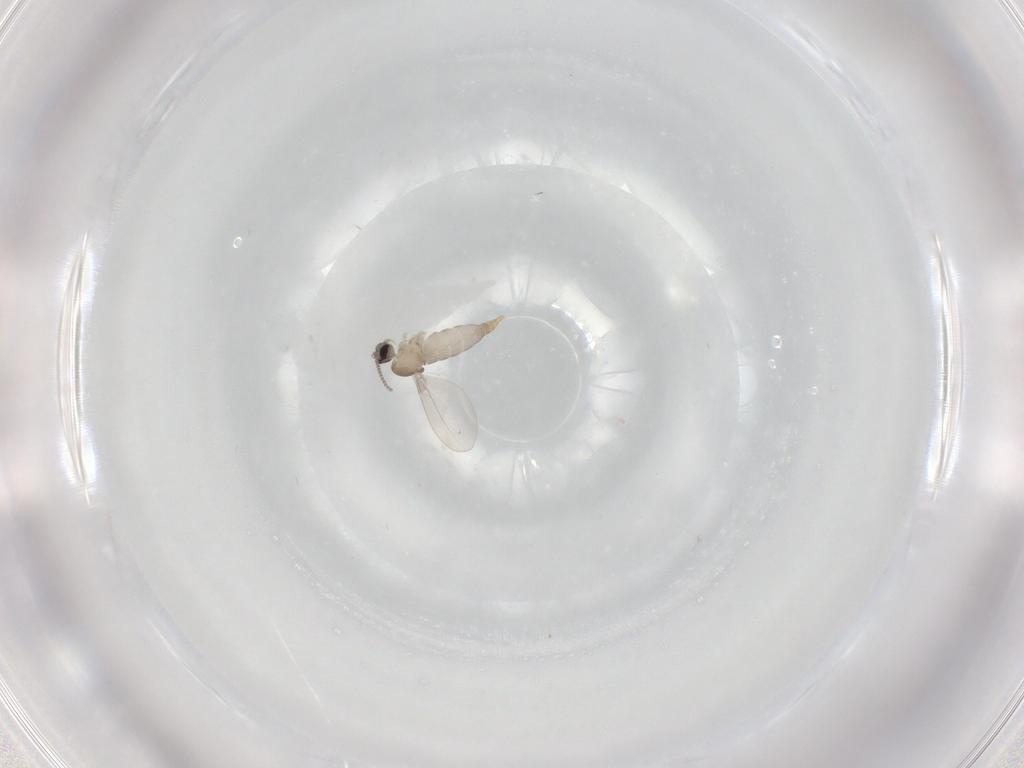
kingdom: Animalia
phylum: Arthropoda
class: Insecta
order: Diptera
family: Cecidomyiidae
